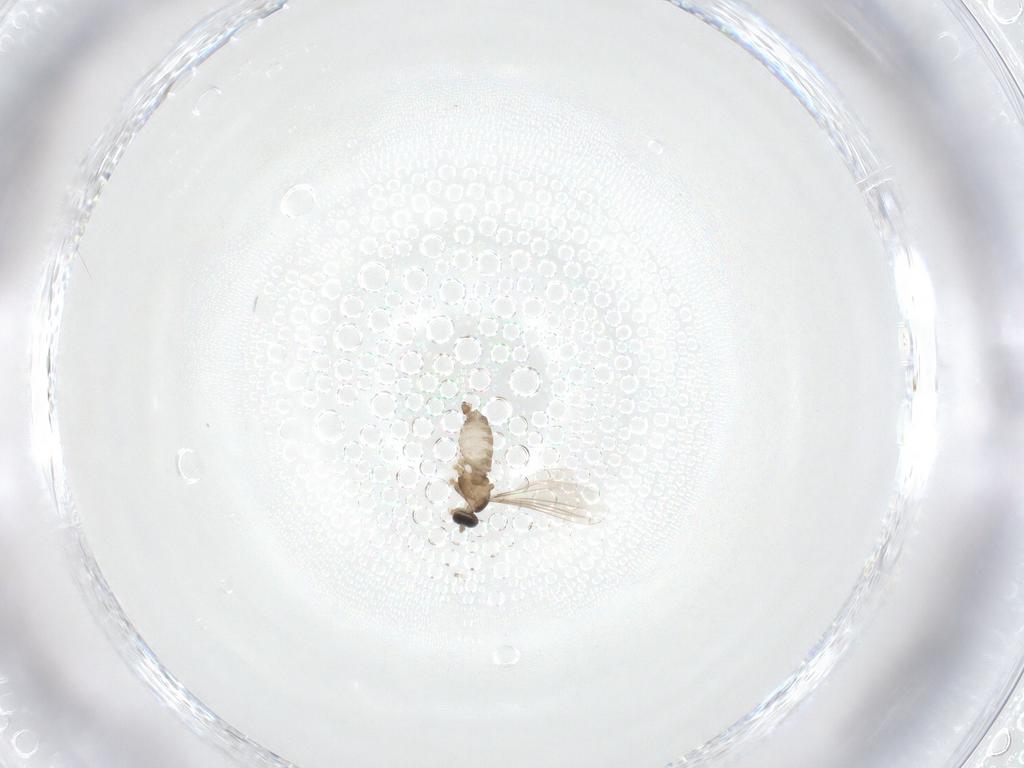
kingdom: Animalia
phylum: Arthropoda
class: Insecta
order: Diptera
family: Cecidomyiidae
